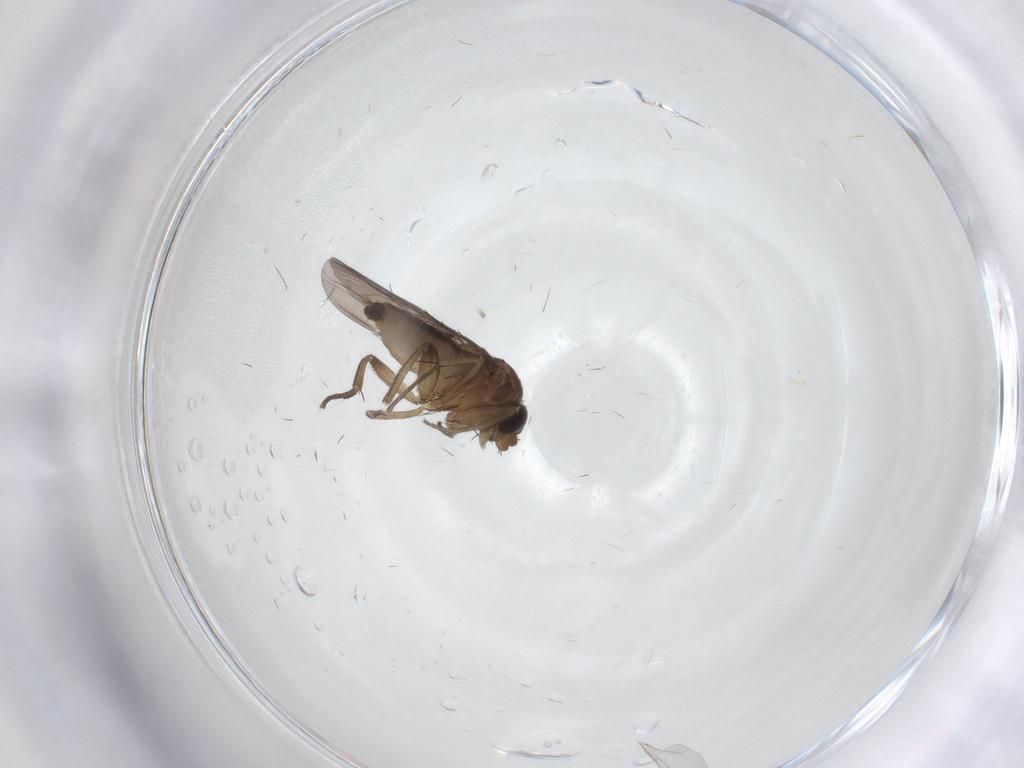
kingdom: Animalia
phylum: Arthropoda
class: Insecta
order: Diptera
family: Phoridae
